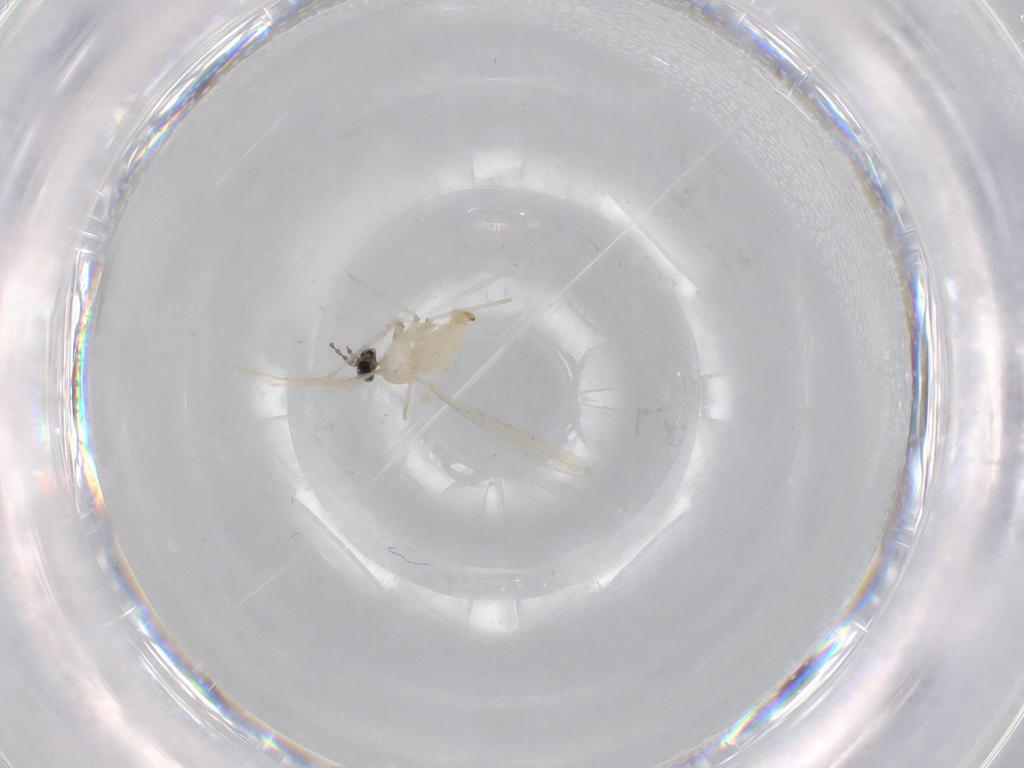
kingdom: Animalia
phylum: Arthropoda
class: Insecta
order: Diptera
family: Cecidomyiidae
